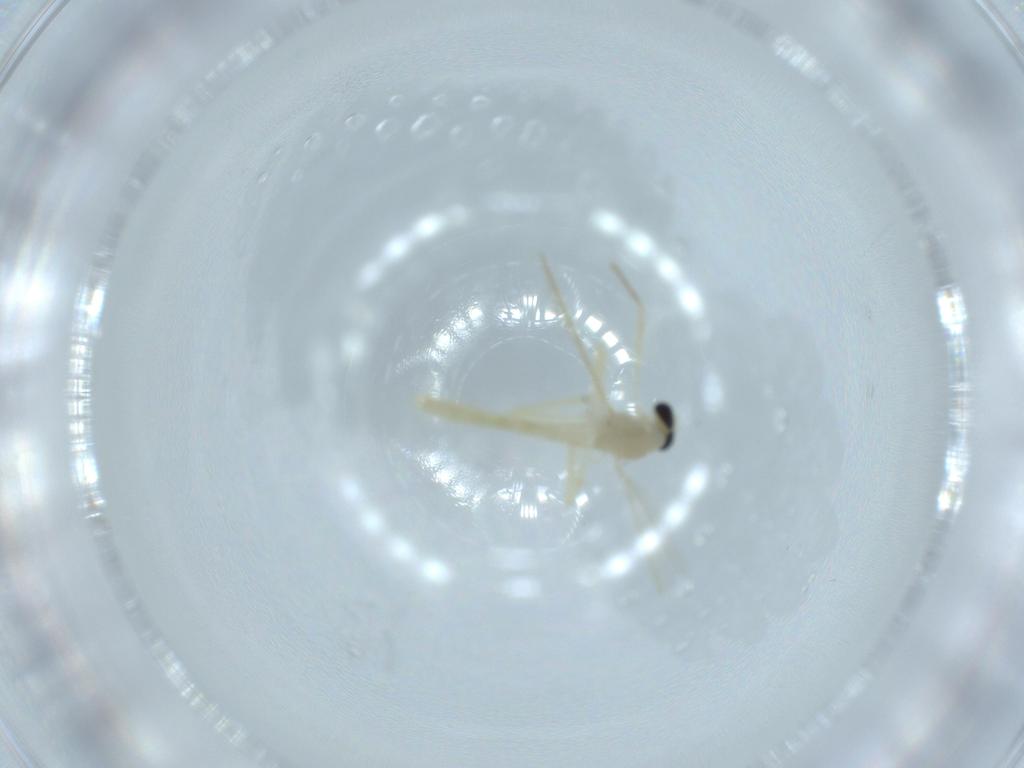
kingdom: Animalia
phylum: Arthropoda
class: Insecta
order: Diptera
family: Chironomidae
